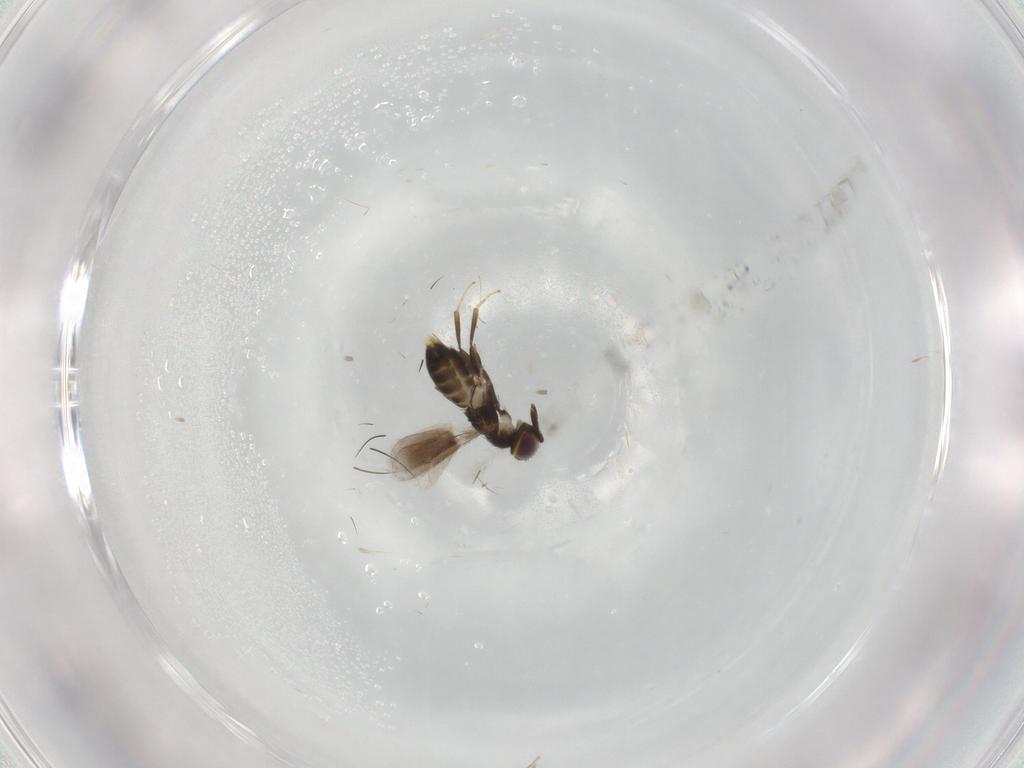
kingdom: Animalia
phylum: Arthropoda
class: Insecta
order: Hymenoptera
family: Aphelinidae
